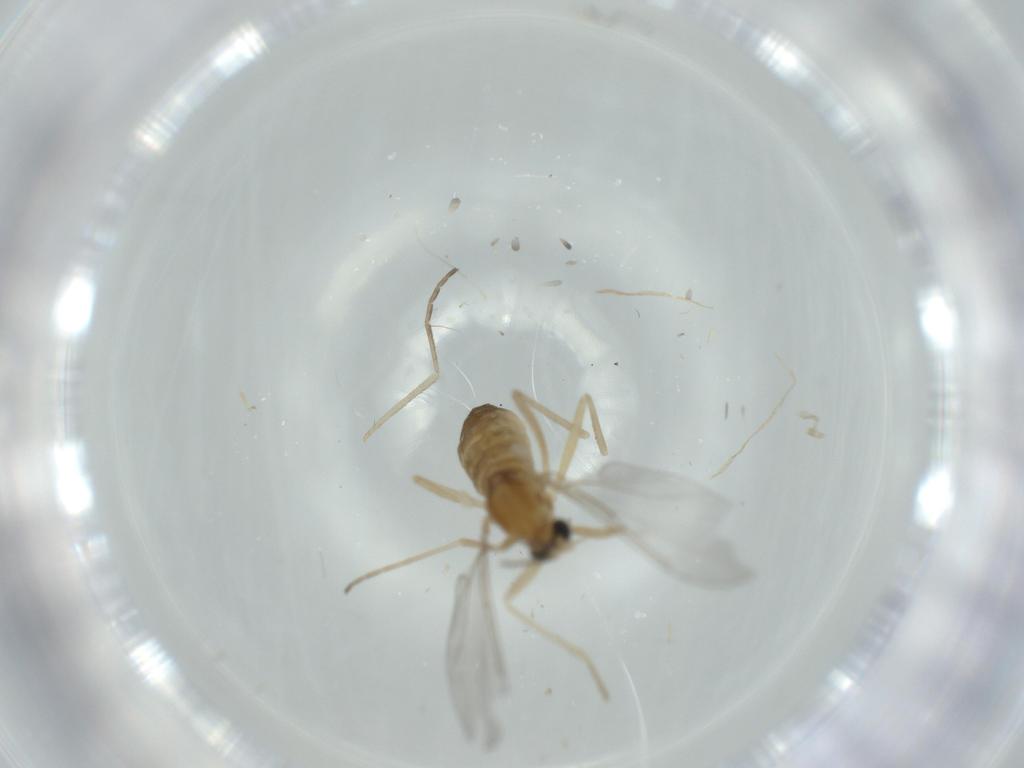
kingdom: Animalia
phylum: Arthropoda
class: Insecta
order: Diptera
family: Cecidomyiidae
